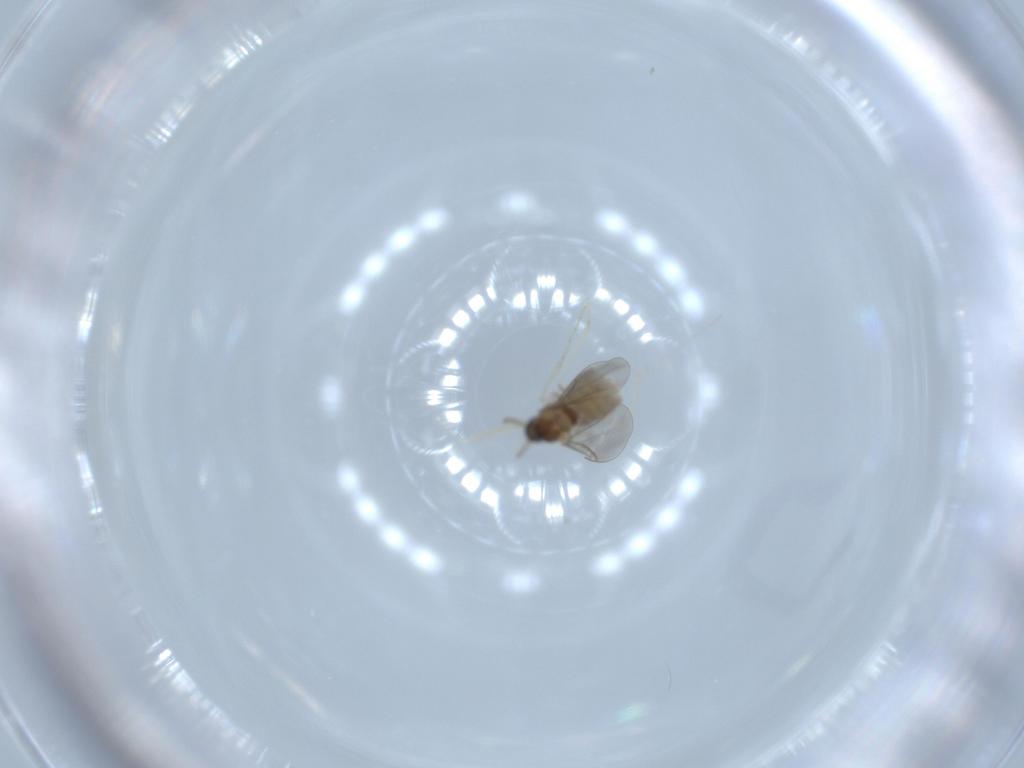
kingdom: Animalia
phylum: Arthropoda
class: Insecta
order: Diptera
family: Cecidomyiidae
